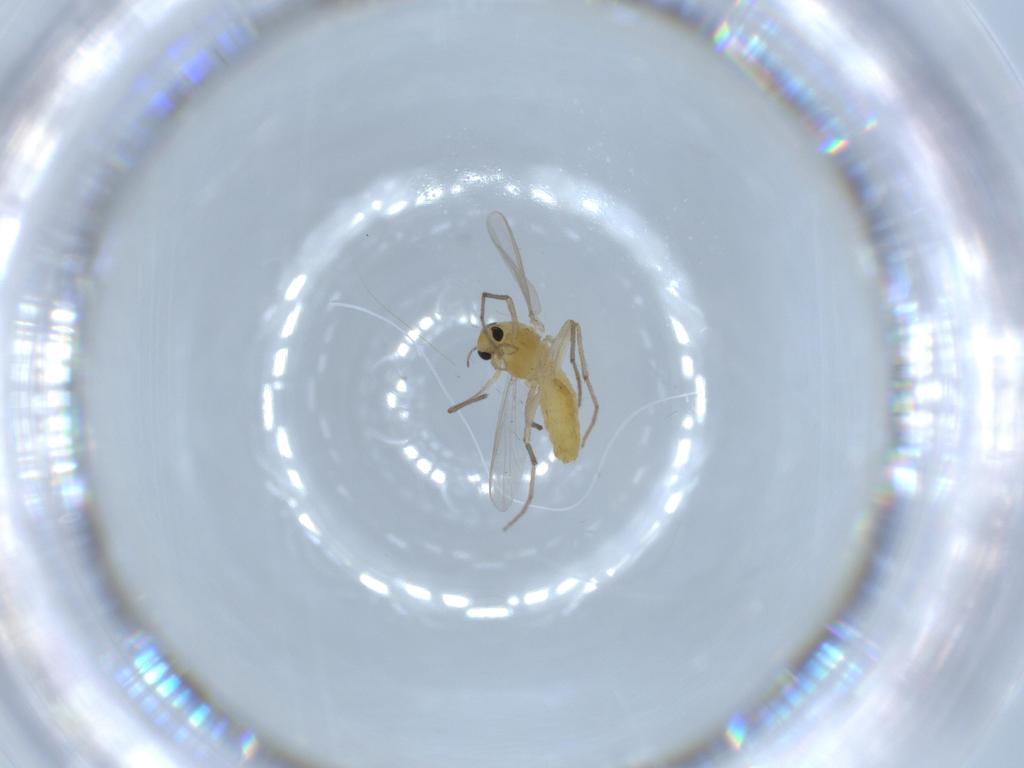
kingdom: Animalia
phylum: Arthropoda
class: Insecta
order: Diptera
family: Chironomidae
